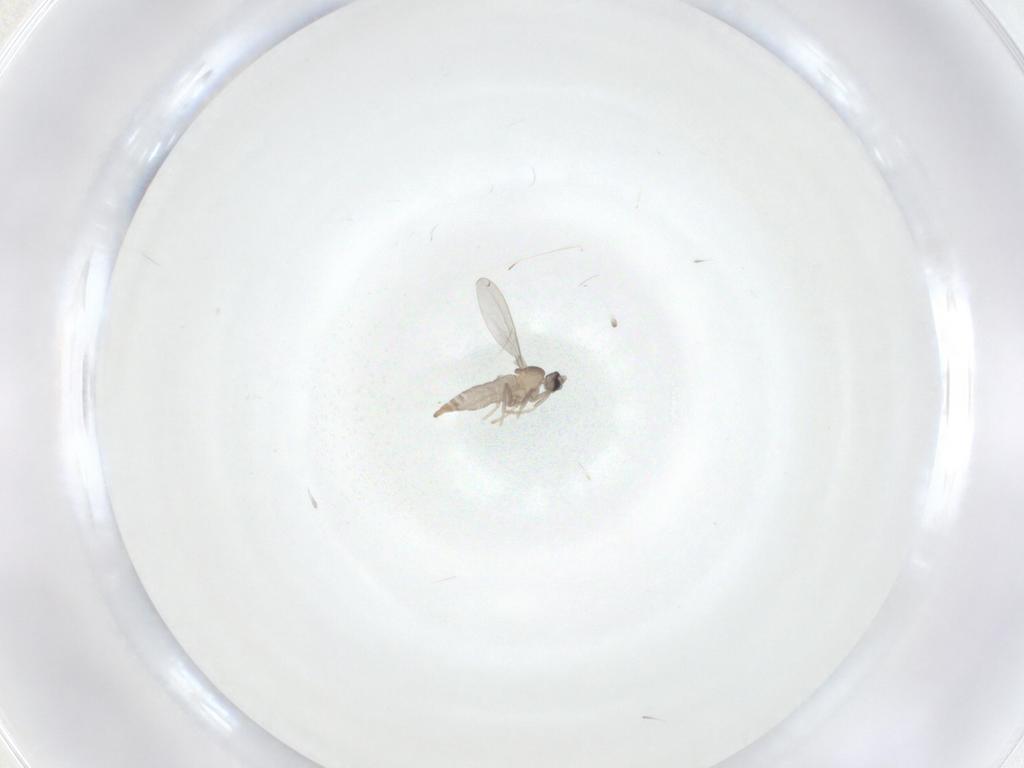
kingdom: Animalia
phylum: Arthropoda
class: Insecta
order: Diptera
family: Cecidomyiidae
